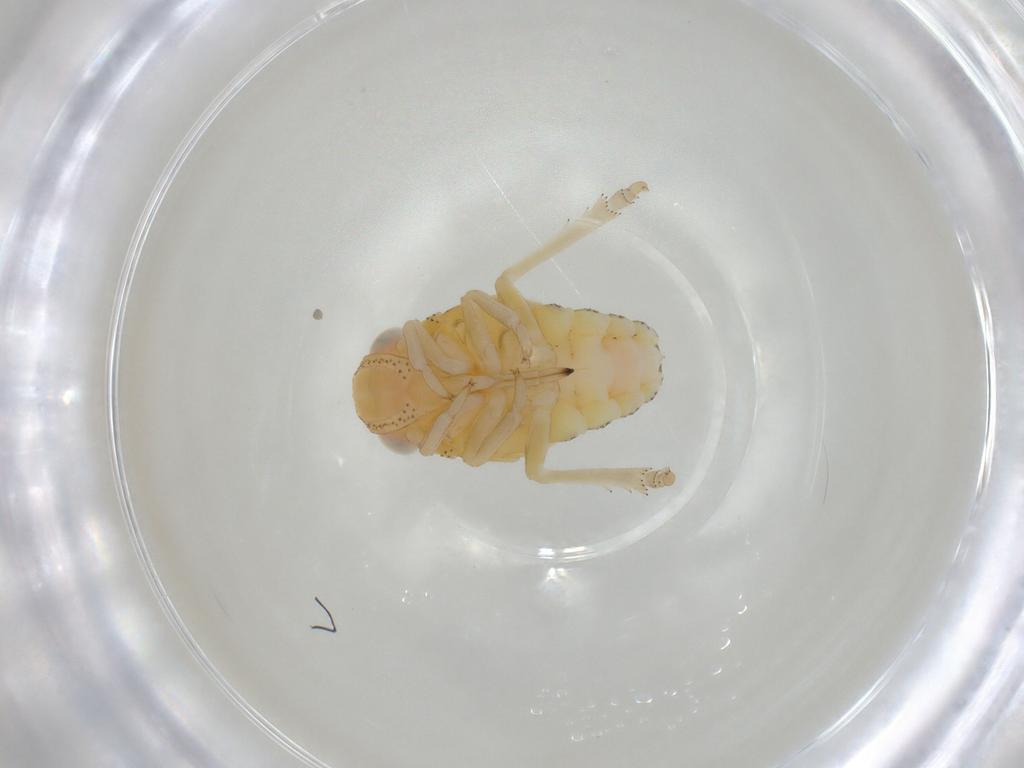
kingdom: Animalia
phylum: Arthropoda
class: Insecta
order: Hemiptera
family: Tropiduchidae
